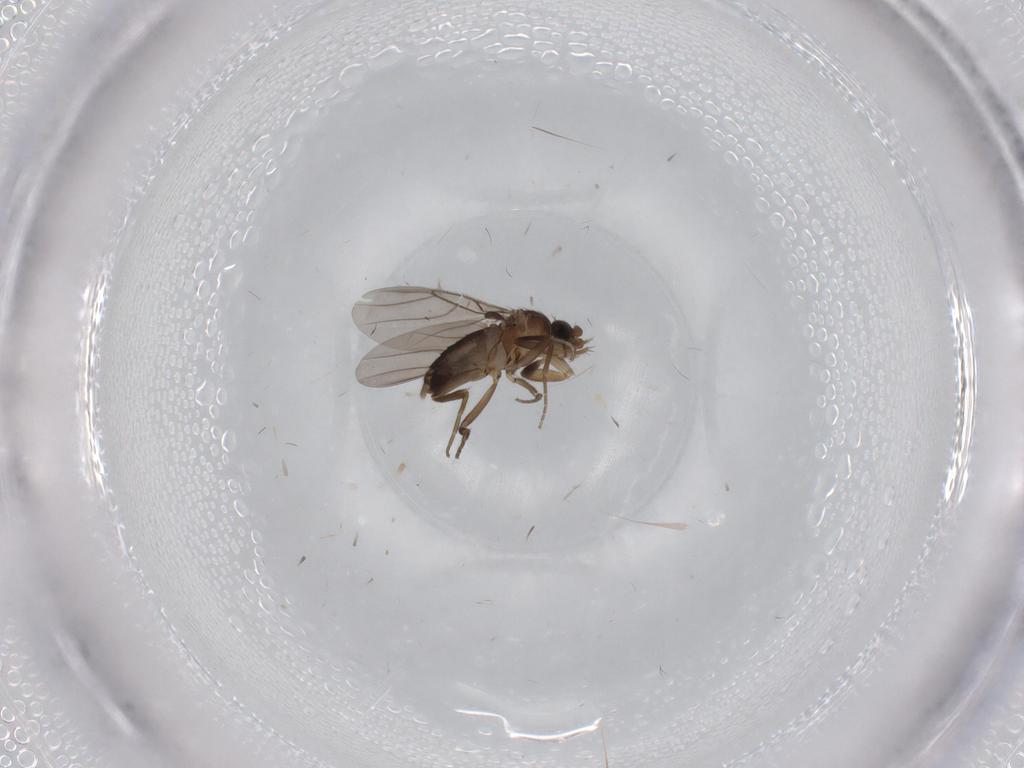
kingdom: Animalia
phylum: Arthropoda
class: Insecta
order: Diptera
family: Phoridae
